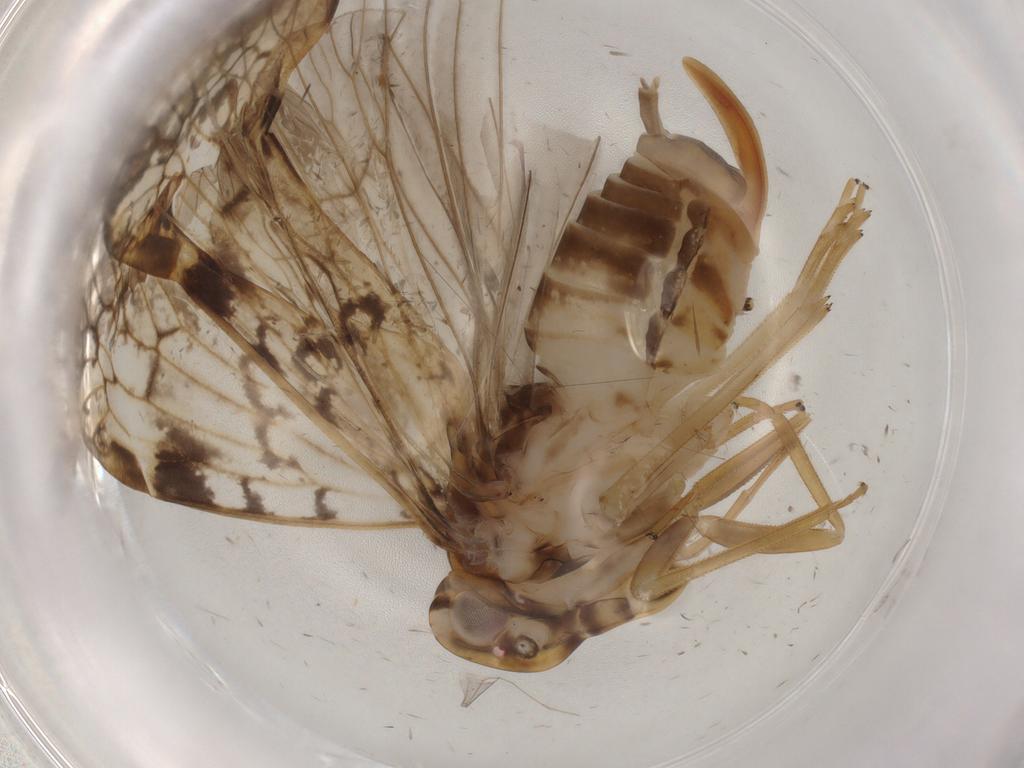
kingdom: Animalia
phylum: Arthropoda
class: Insecta
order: Hemiptera
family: Cixiidae
